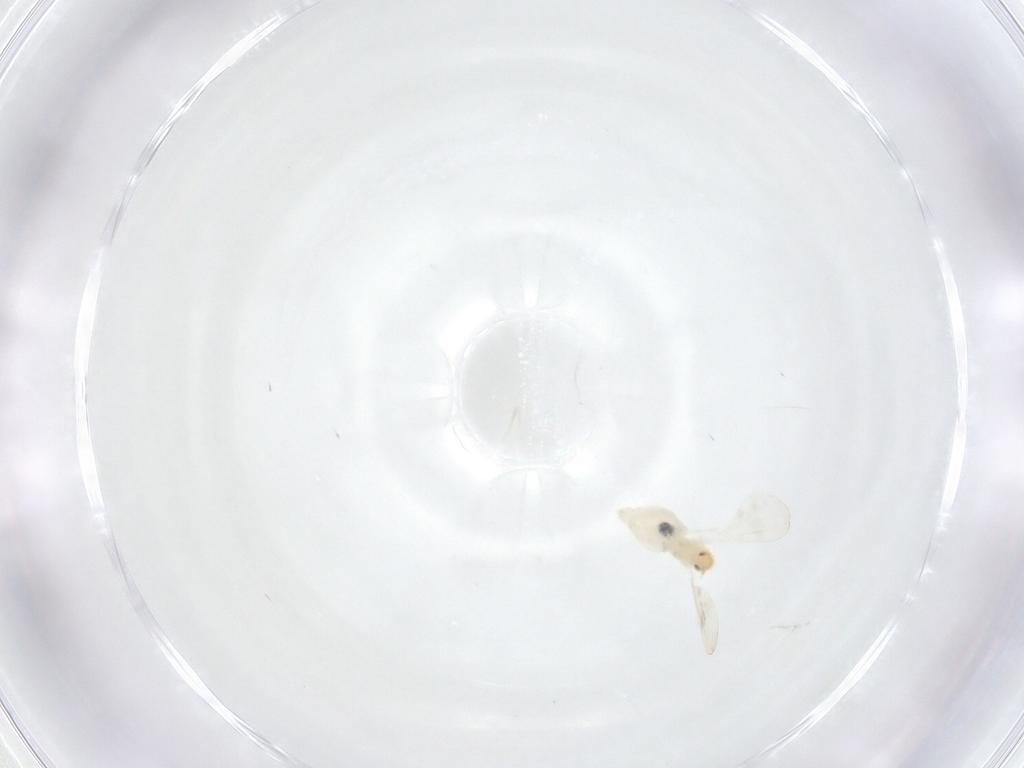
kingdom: Animalia
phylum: Arthropoda
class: Insecta
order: Diptera
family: Cecidomyiidae
